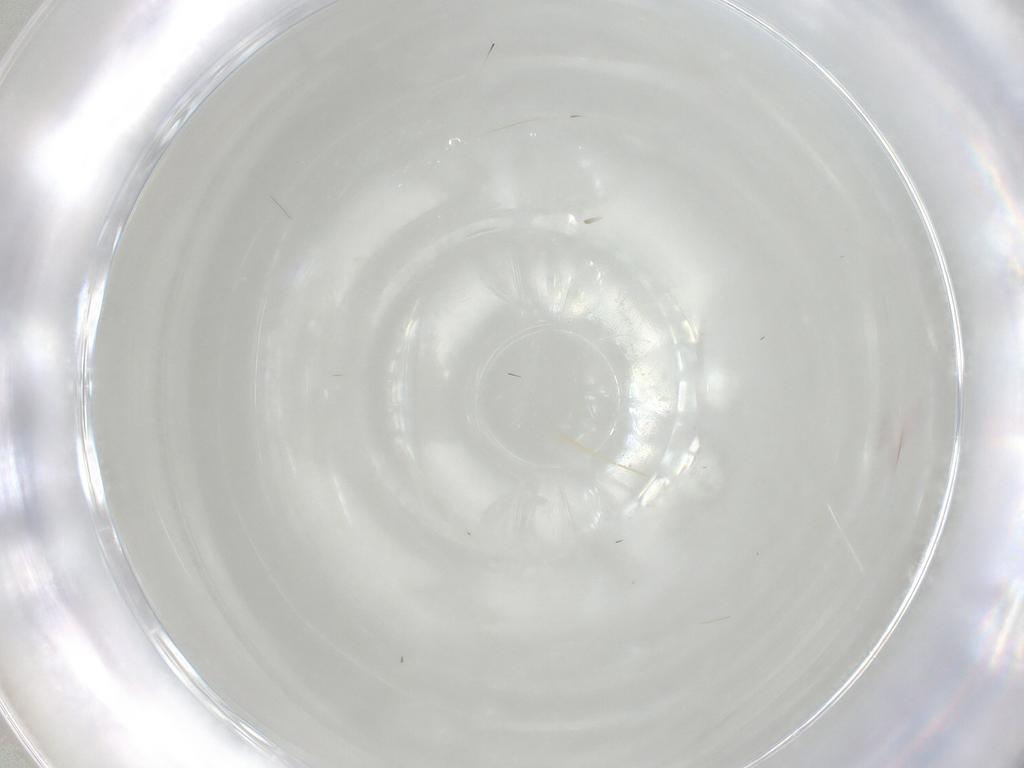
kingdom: Animalia
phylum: Arthropoda
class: Insecta
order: Thysanoptera
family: Thripidae
